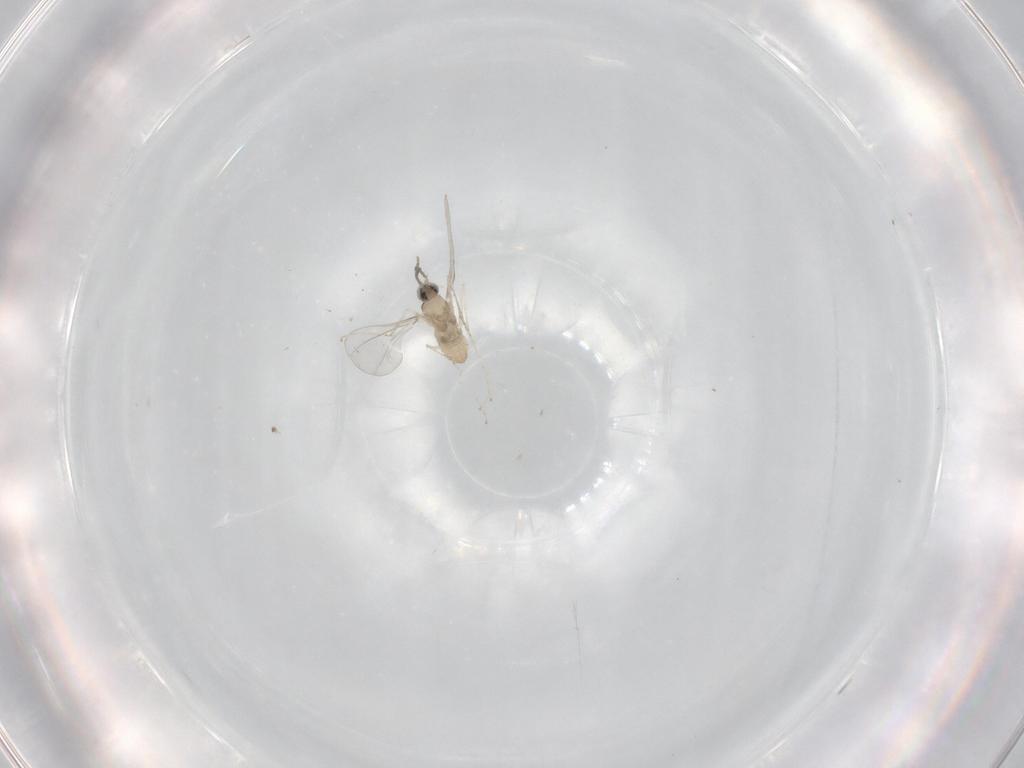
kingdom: Animalia
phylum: Arthropoda
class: Insecta
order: Diptera
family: Cecidomyiidae
